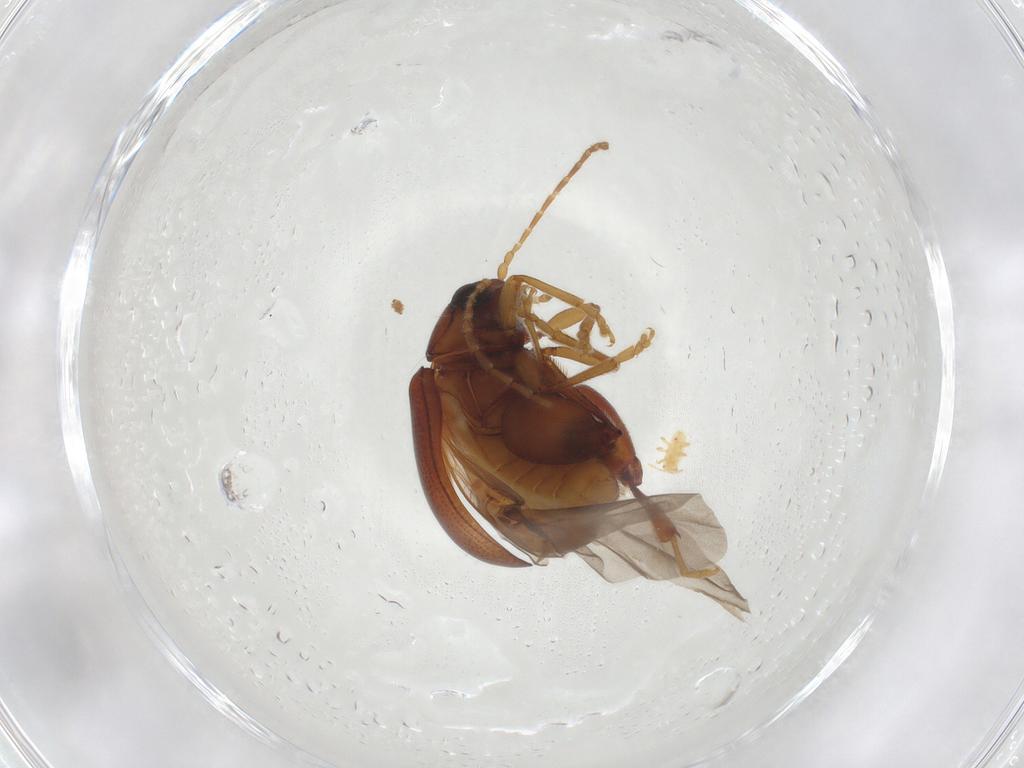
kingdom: Animalia
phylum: Arthropoda
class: Insecta
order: Coleoptera
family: Chrysomelidae
